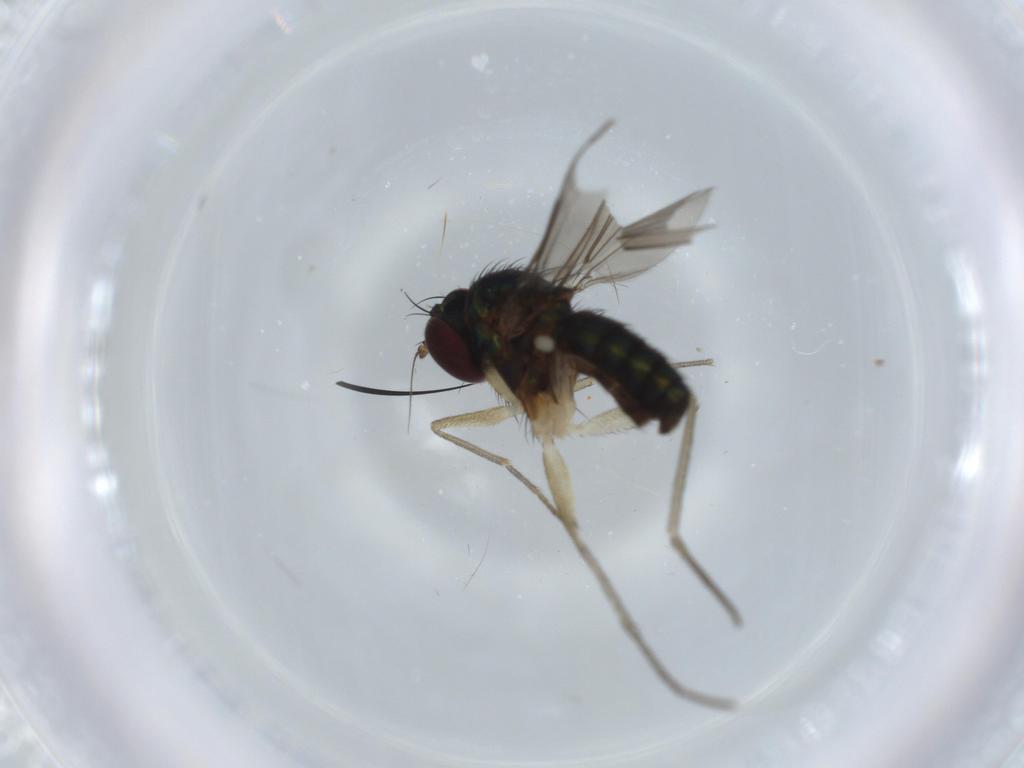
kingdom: Animalia
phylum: Arthropoda
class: Insecta
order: Diptera
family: Dolichopodidae
